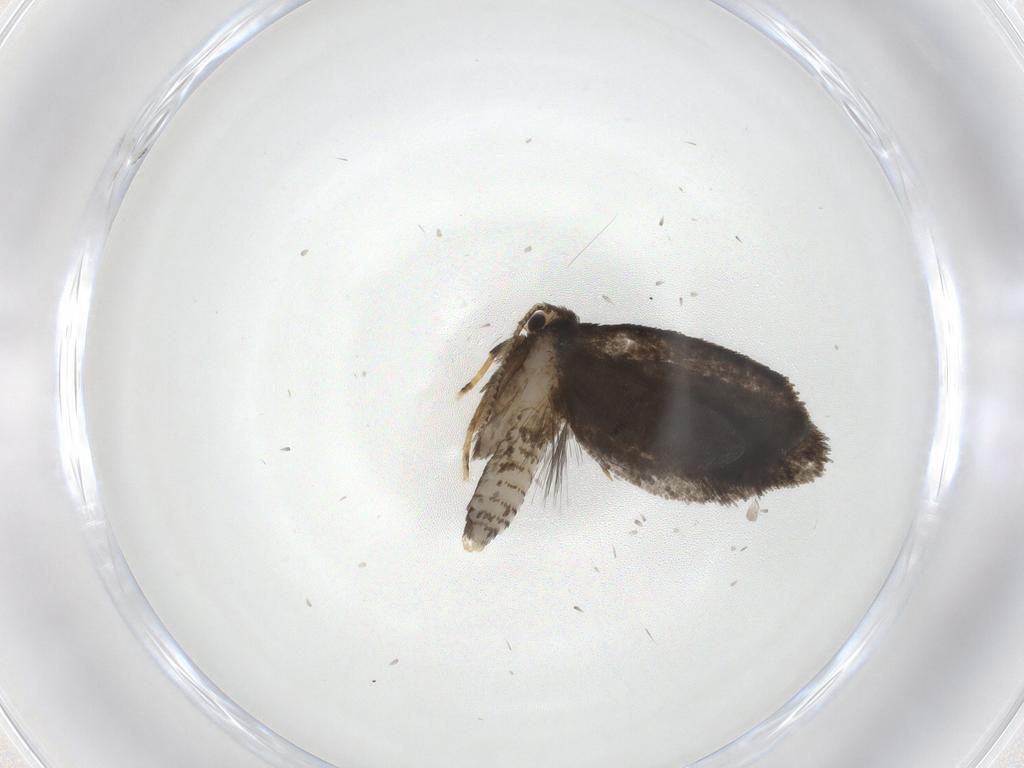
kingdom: Animalia
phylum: Arthropoda
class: Insecta
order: Lepidoptera
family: Psychidae
